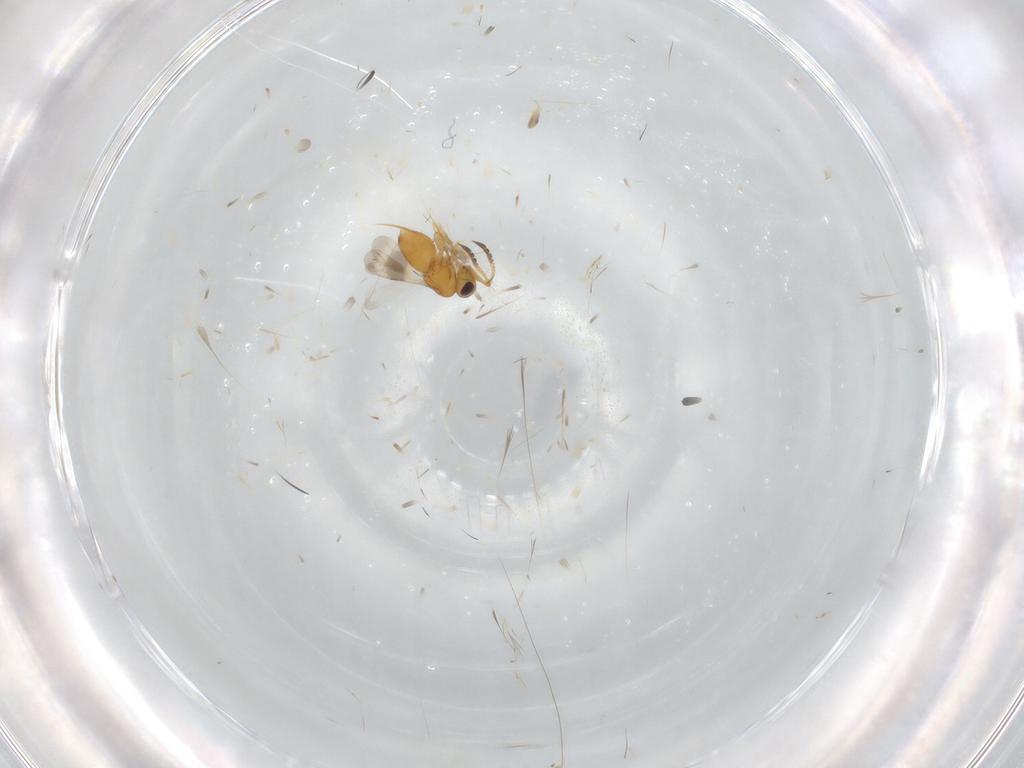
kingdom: Animalia
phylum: Arthropoda
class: Insecta
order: Hymenoptera
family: Ceraphronidae
